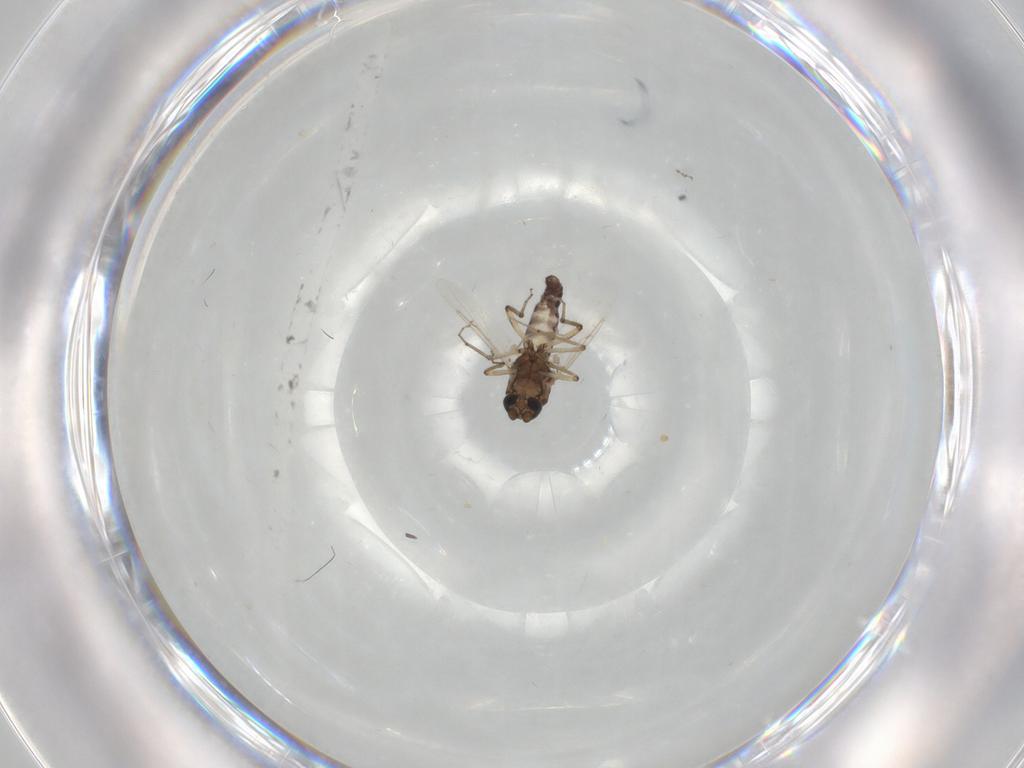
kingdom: Animalia
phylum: Arthropoda
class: Insecta
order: Diptera
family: Ceratopogonidae
